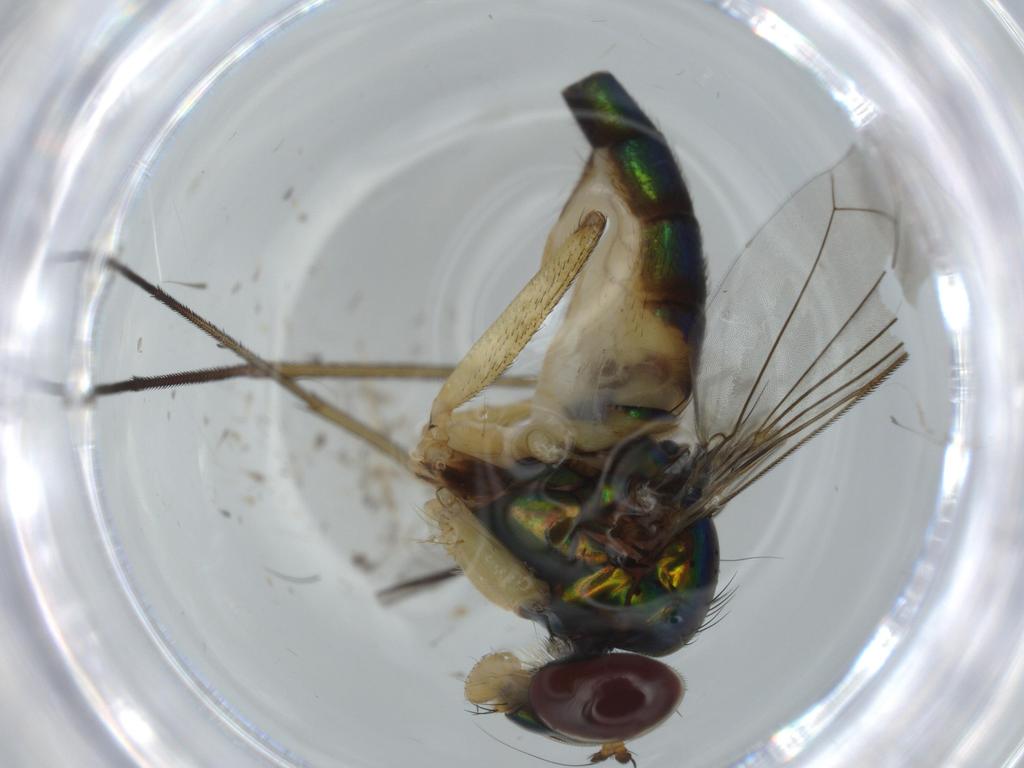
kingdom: Animalia
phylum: Arthropoda
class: Insecta
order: Diptera
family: Dolichopodidae
